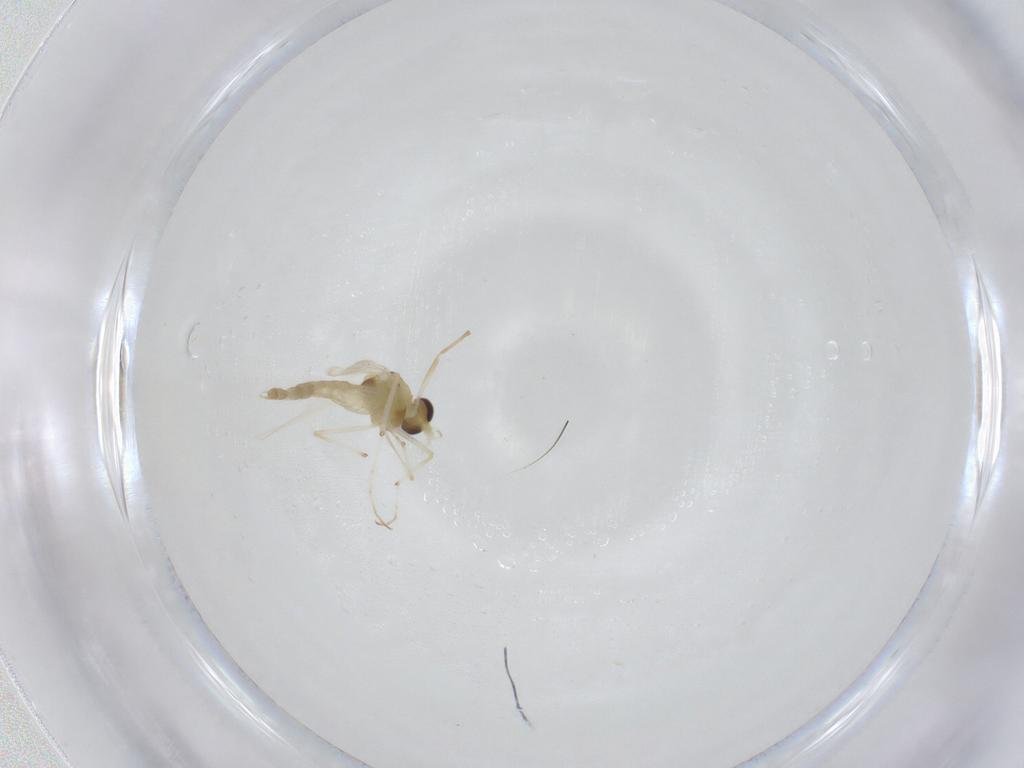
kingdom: Animalia
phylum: Arthropoda
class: Insecta
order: Diptera
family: Chironomidae
